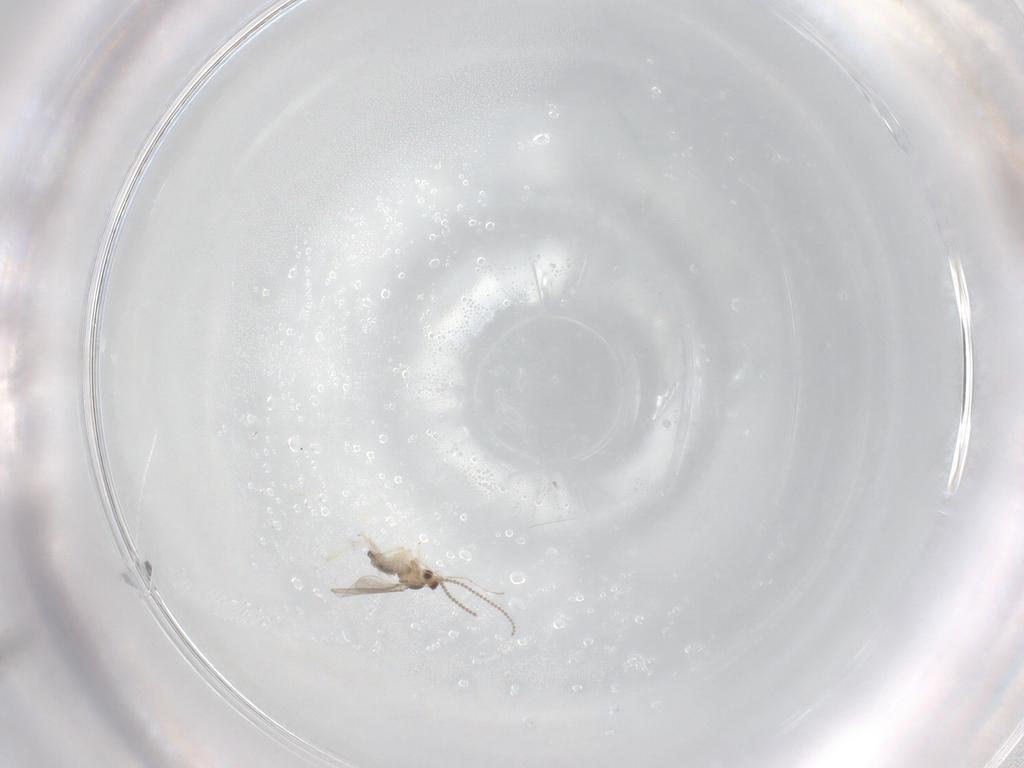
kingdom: Animalia
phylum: Arthropoda
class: Insecta
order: Diptera
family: Cecidomyiidae
